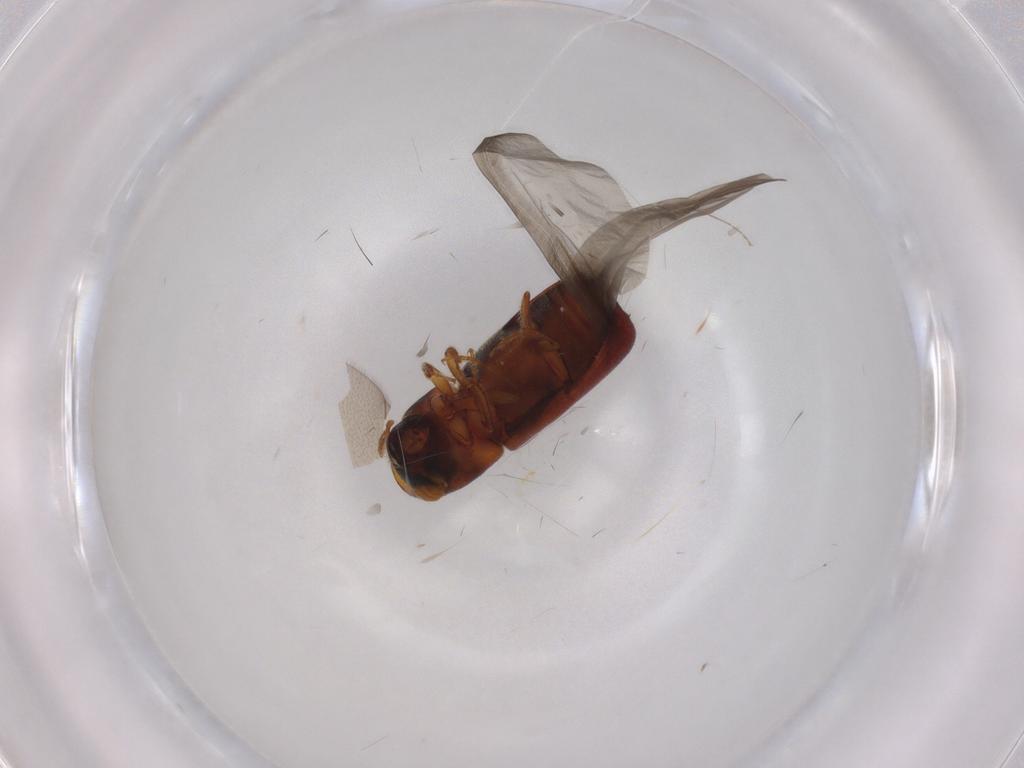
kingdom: Animalia
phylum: Arthropoda
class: Insecta
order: Coleoptera
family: Curculionidae
